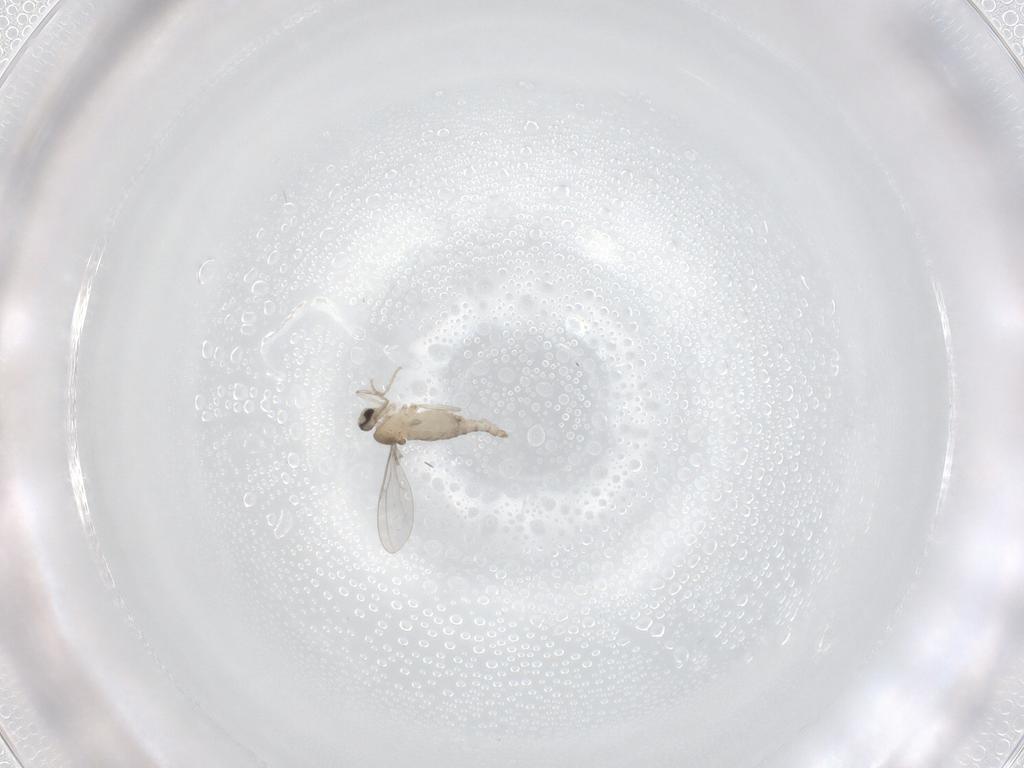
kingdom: Animalia
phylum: Arthropoda
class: Insecta
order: Diptera
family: Cecidomyiidae
